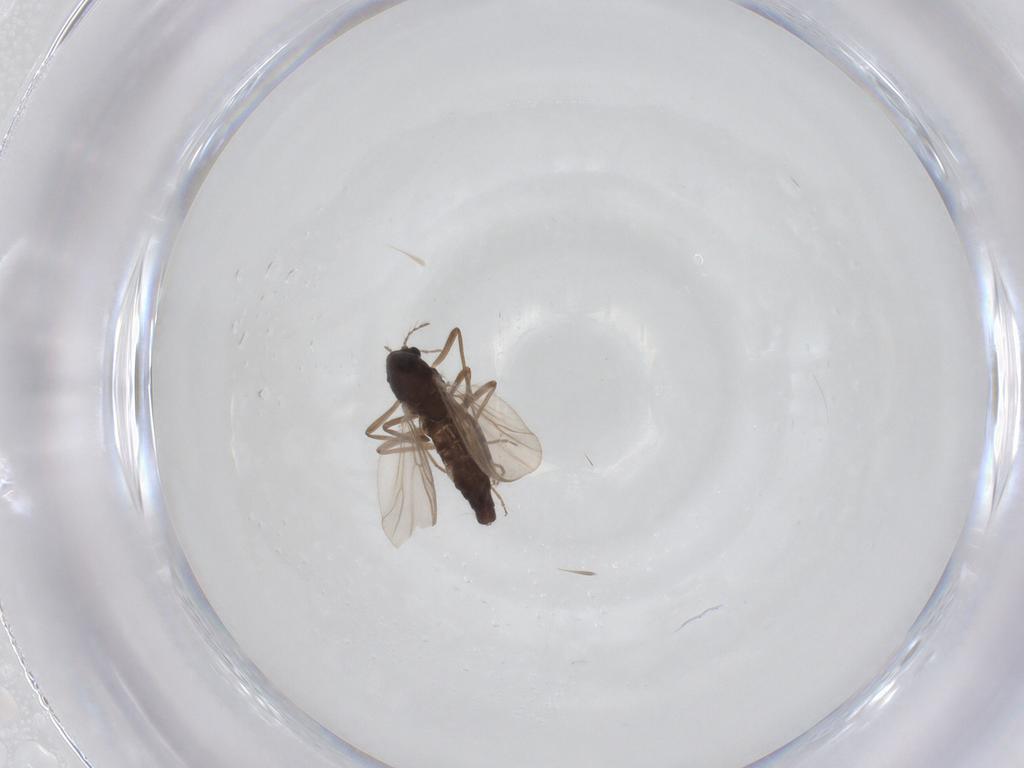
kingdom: Animalia
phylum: Arthropoda
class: Insecta
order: Diptera
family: Chironomidae
